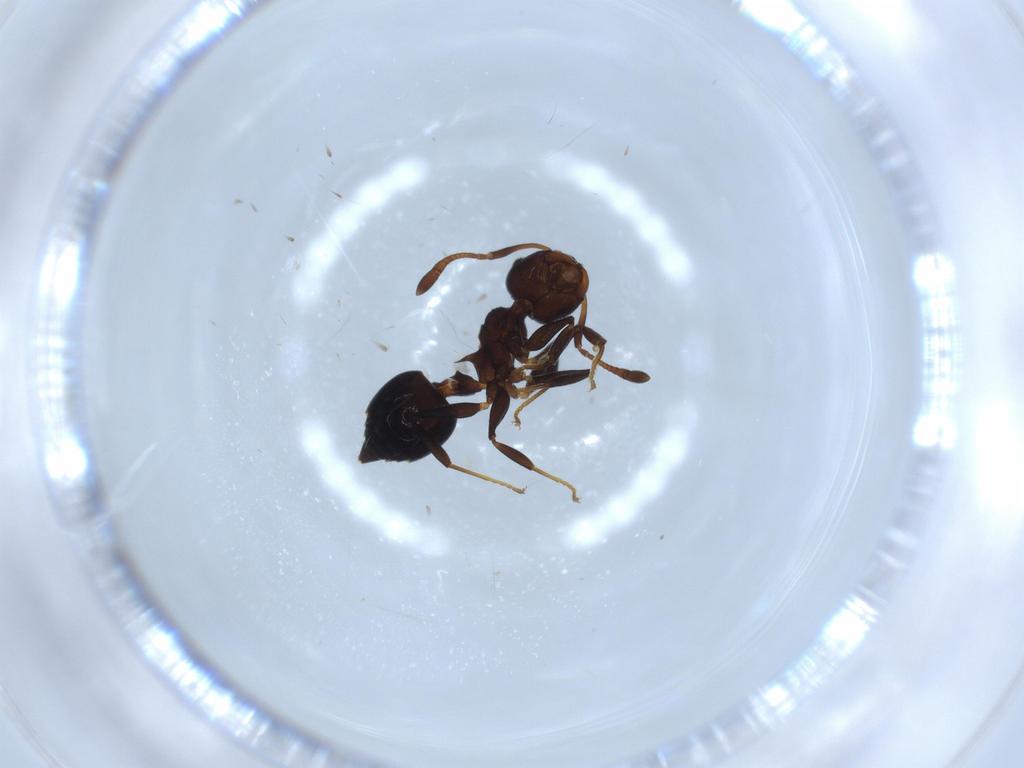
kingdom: Animalia
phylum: Arthropoda
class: Insecta
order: Hymenoptera
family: Formicidae
